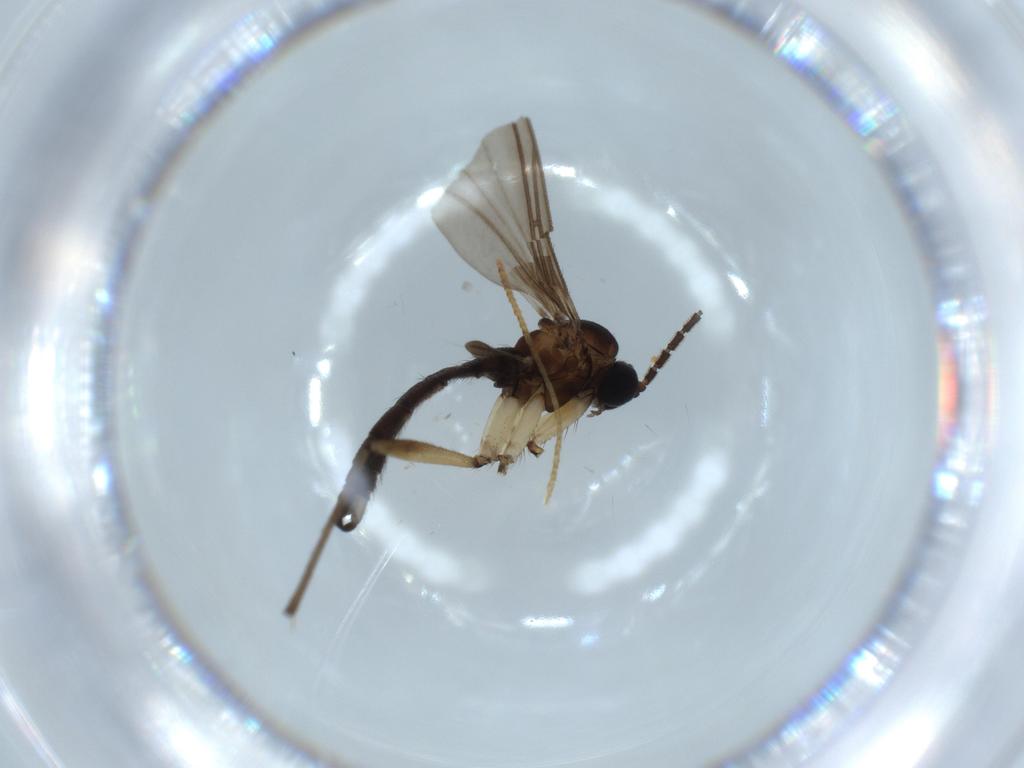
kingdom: Animalia
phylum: Arthropoda
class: Insecta
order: Diptera
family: Sciaridae
